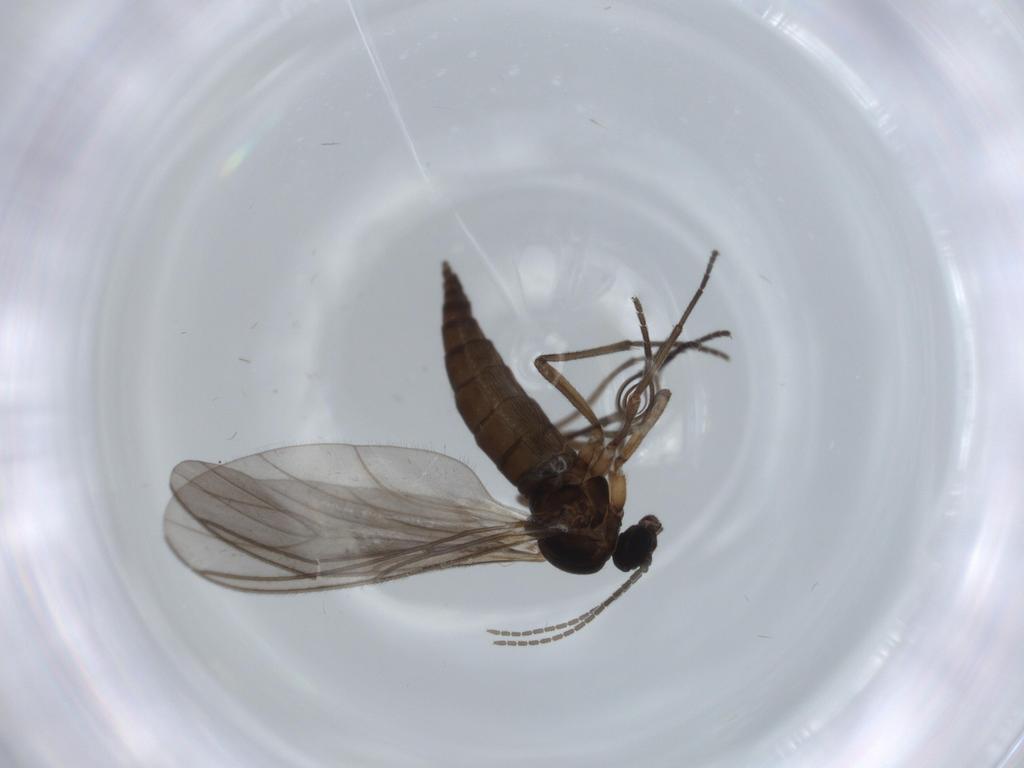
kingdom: Animalia
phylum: Arthropoda
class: Insecta
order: Diptera
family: Sciaridae
